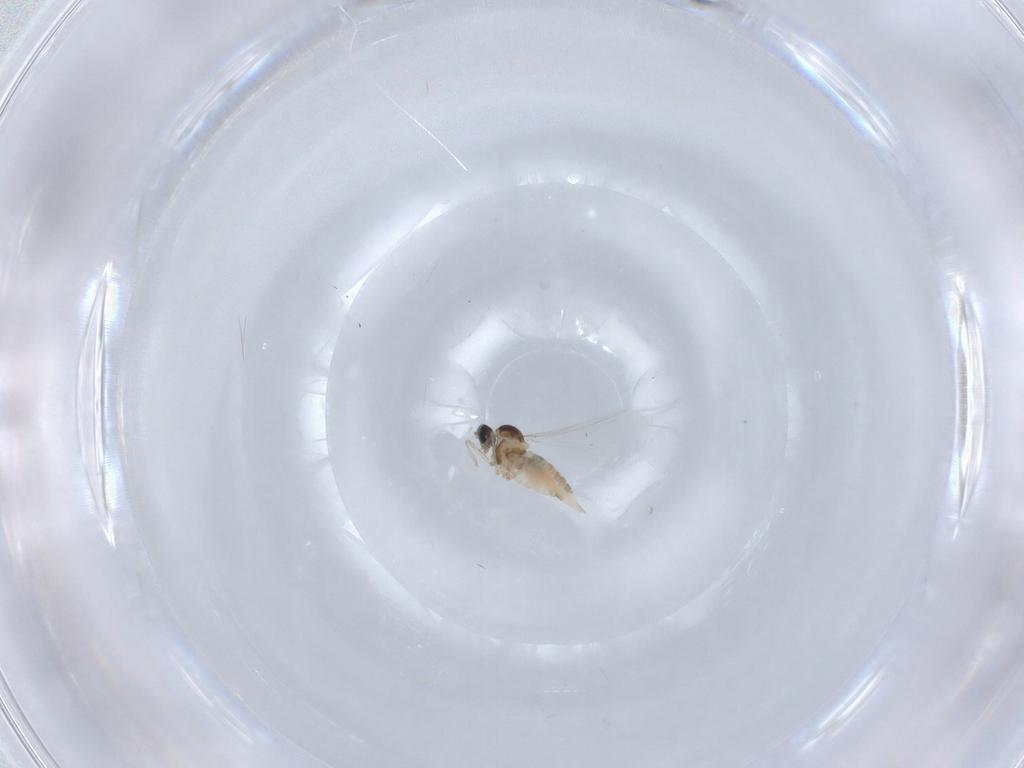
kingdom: Animalia
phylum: Arthropoda
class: Insecta
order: Diptera
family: Cecidomyiidae
